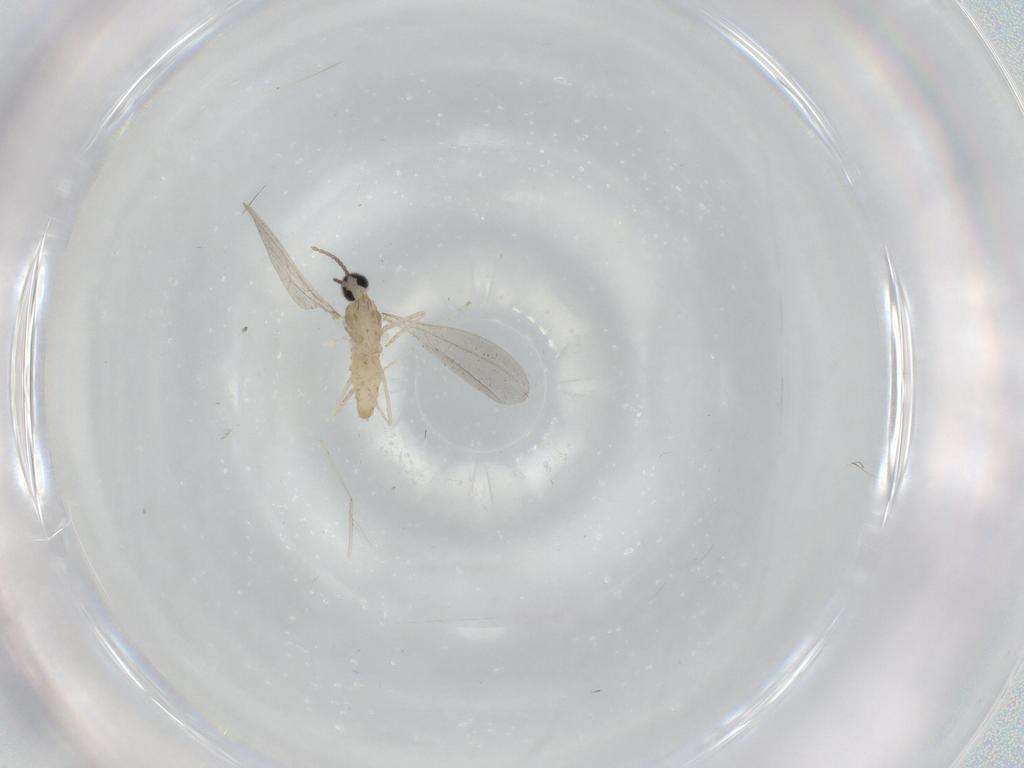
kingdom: Animalia
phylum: Arthropoda
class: Insecta
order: Diptera
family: Cecidomyiidae
